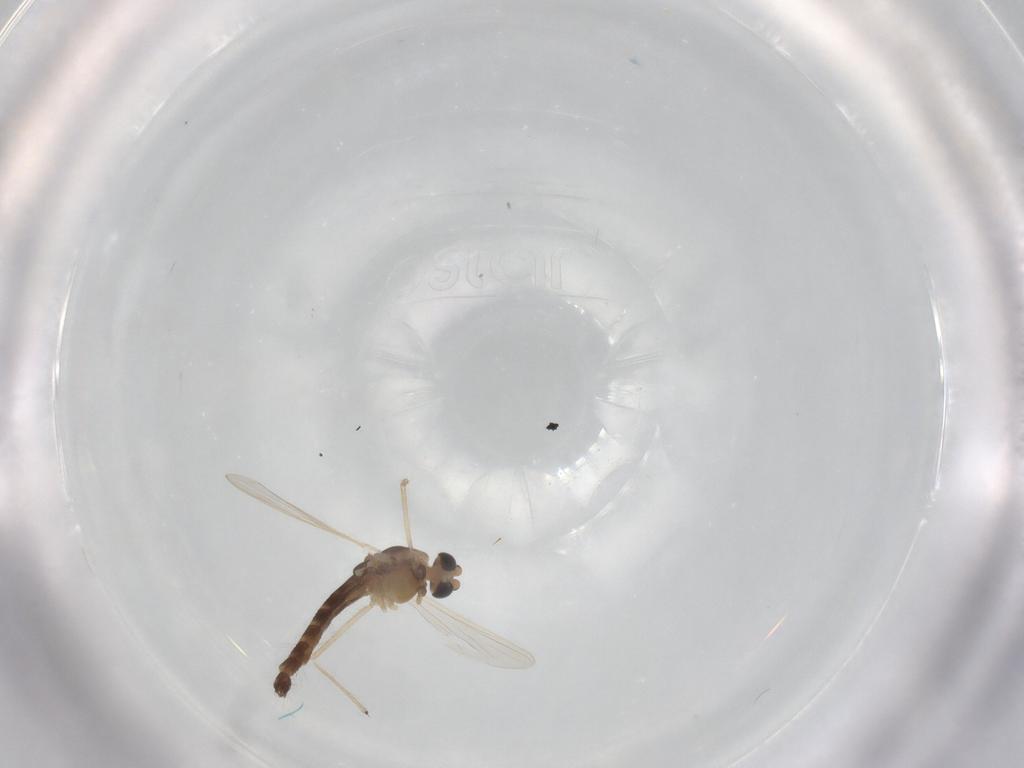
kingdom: Animalia
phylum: Arthropoda
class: Insecta
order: Diptera
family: Chironomidae
